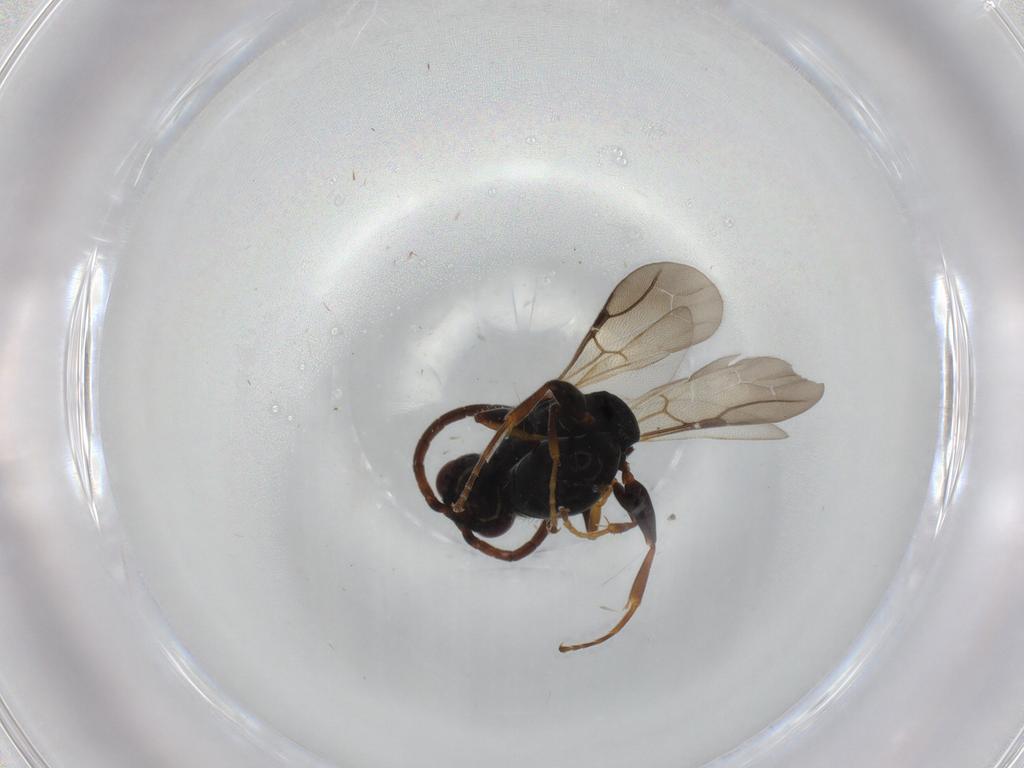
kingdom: Animalia
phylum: Arthropoda
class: Insecta
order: Hymenoptera
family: Bethylidae
